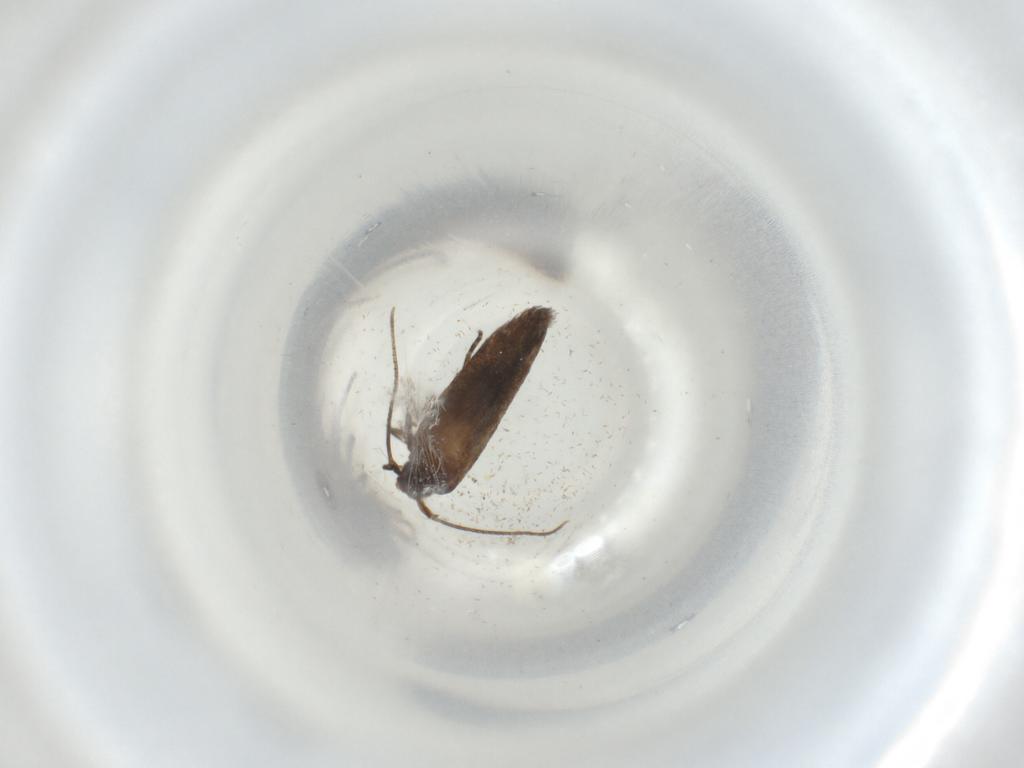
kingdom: Animalia
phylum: Arthropoda
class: Insecta
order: Lepidoptera
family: Cosmopterigidae
